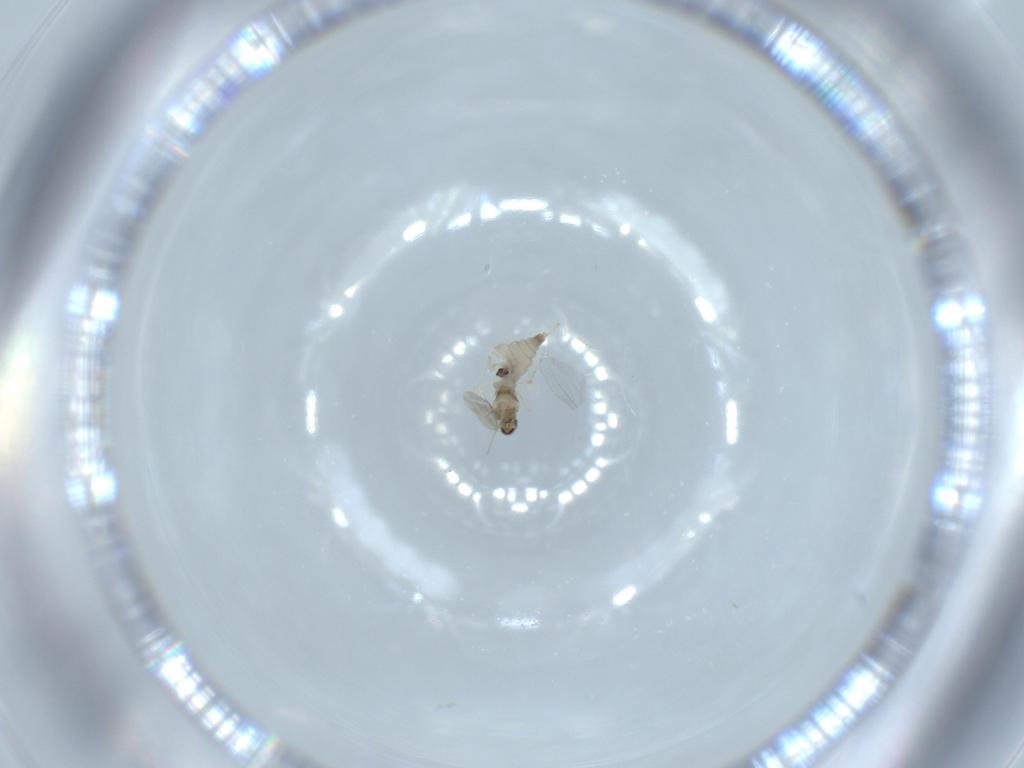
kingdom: Animalia
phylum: Arthropoda
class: Insecta
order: Diptera
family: Cecidomyiidae
